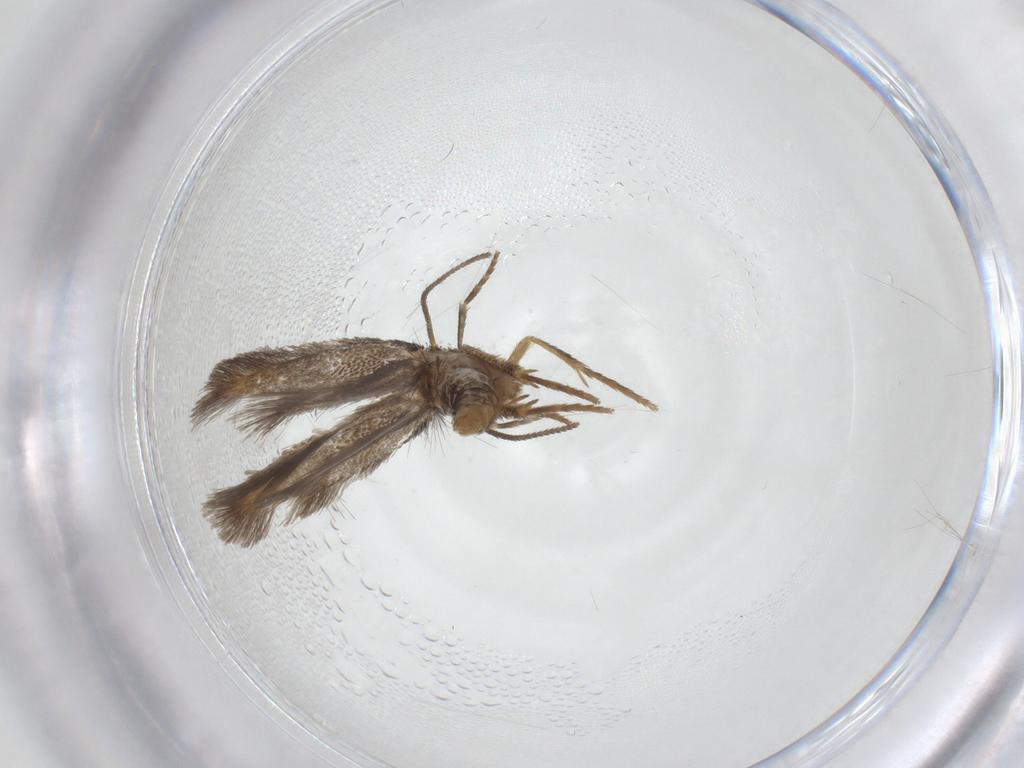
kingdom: Animalia
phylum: Arthropoda
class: Insecta
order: Lepidoptera
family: Nepticulidae
